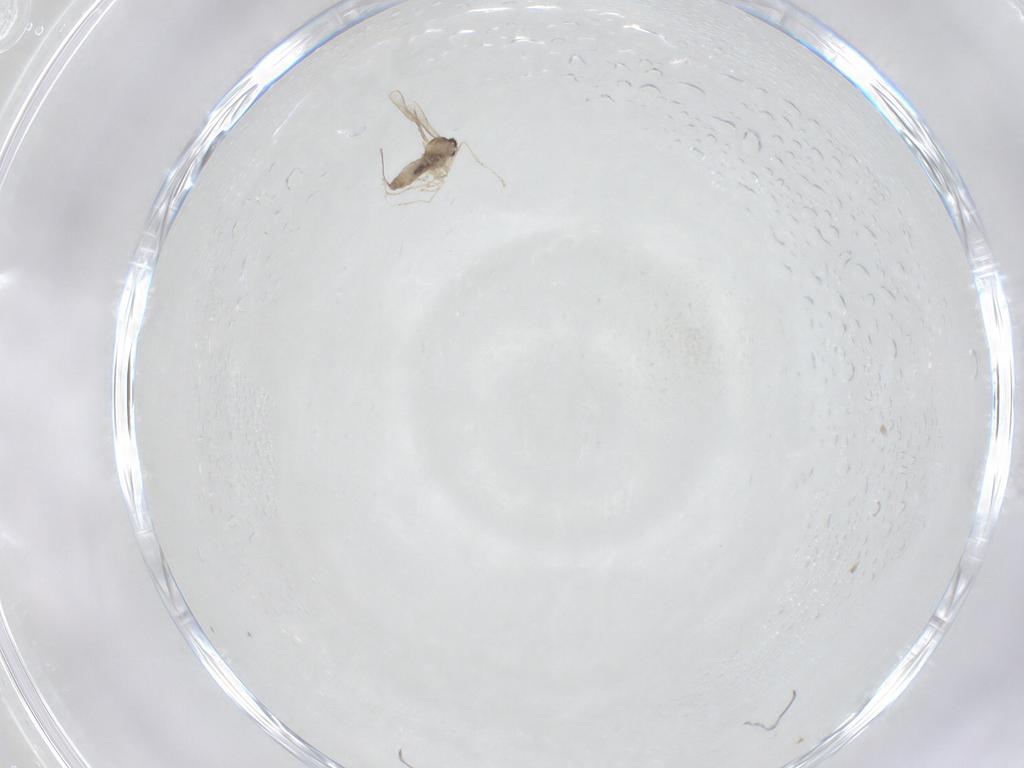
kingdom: Animalia
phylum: Arthropoda
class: Insecta
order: Diptera
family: Cecidomyiidae
